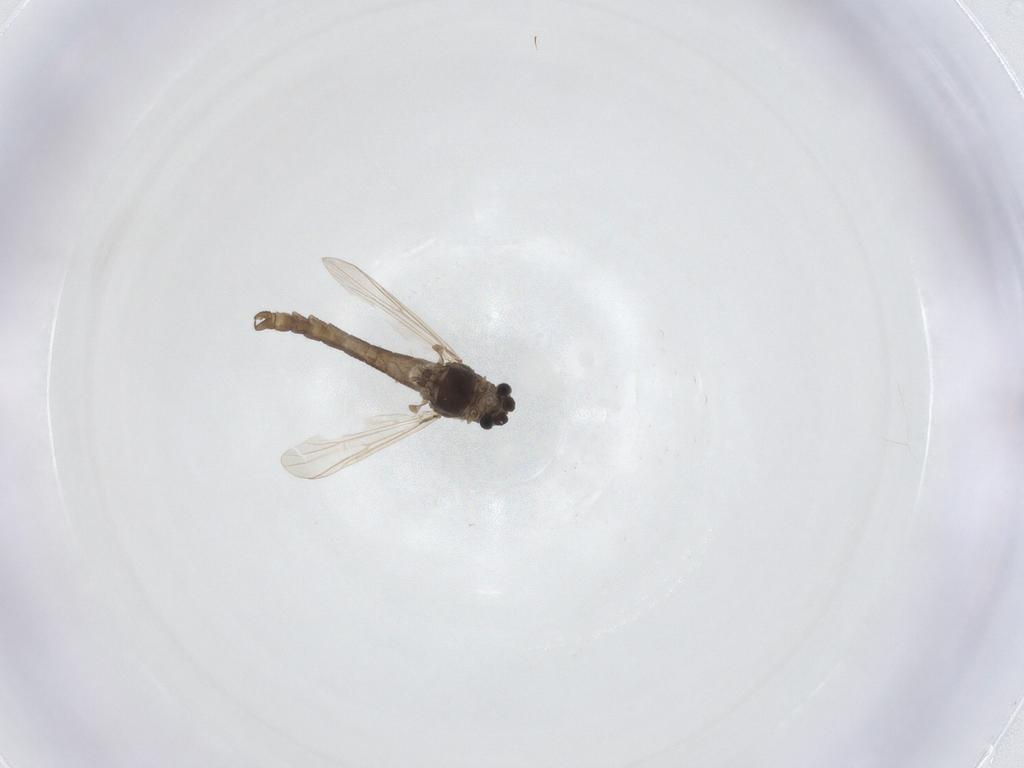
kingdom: Animalia
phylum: Arthropoda
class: Insecta
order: Diptera
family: Chironomidae
